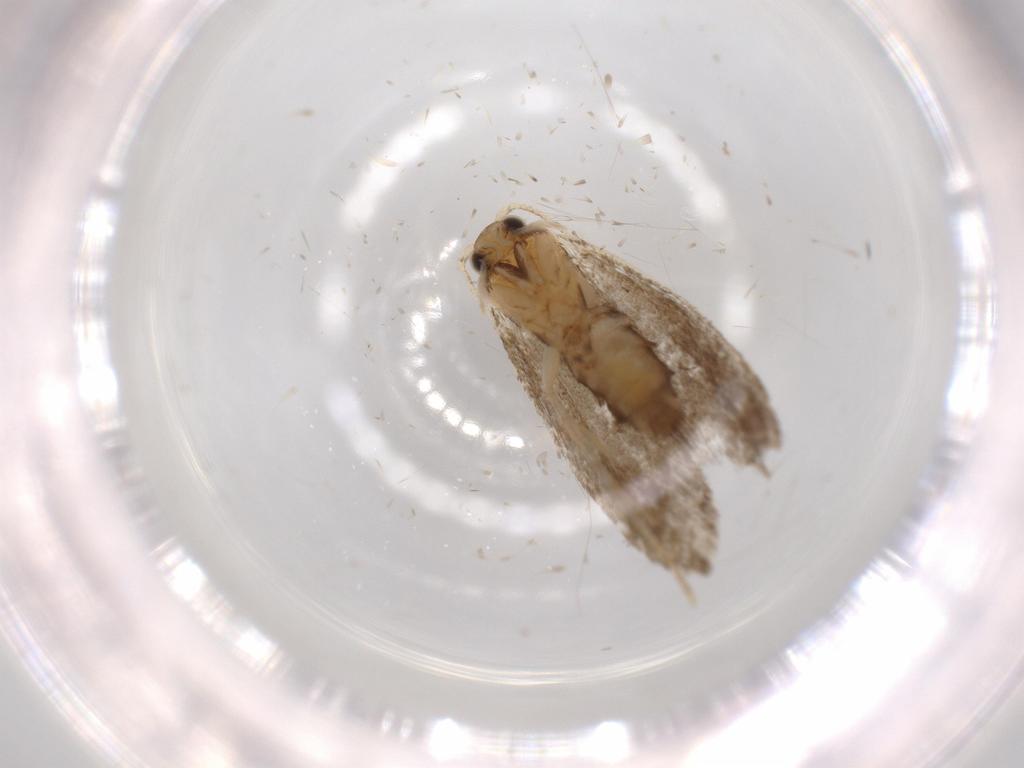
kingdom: Animalia
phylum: Arthropoda
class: Insecta
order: Lepidoptera
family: Tineidae
